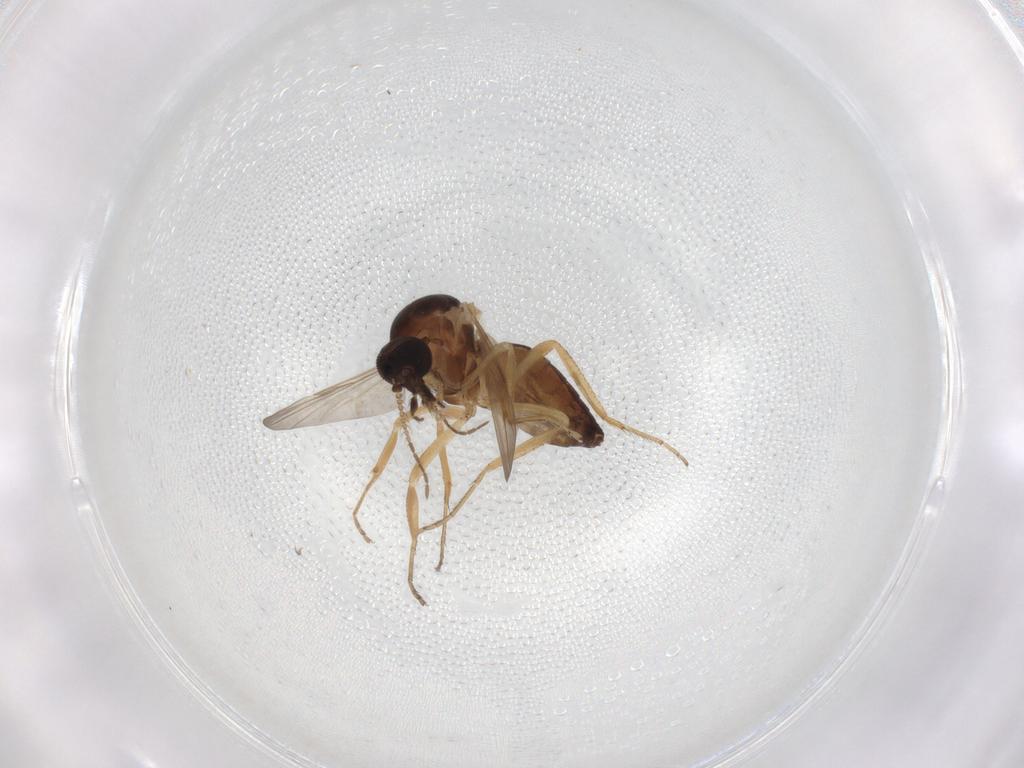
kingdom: Animalia
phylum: Arthropoda
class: Insecta
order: Diptera
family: Ceratopogonidae
